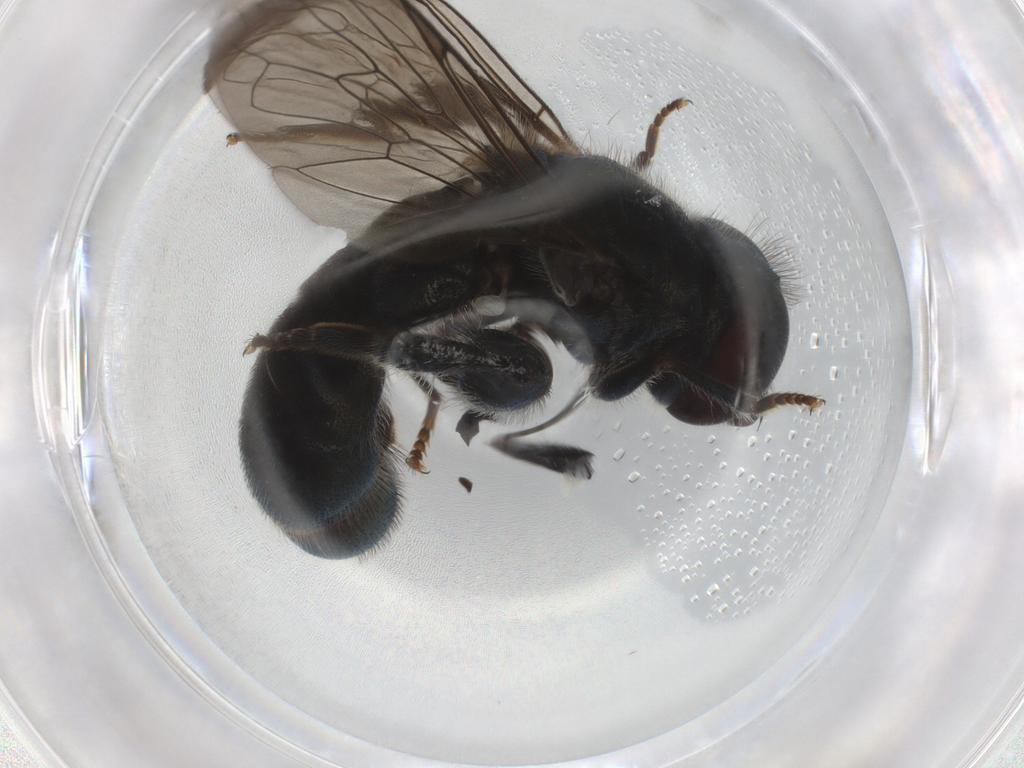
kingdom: Animalia
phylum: Arthropoda
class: Insecta
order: Diptera
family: Syrphidae
